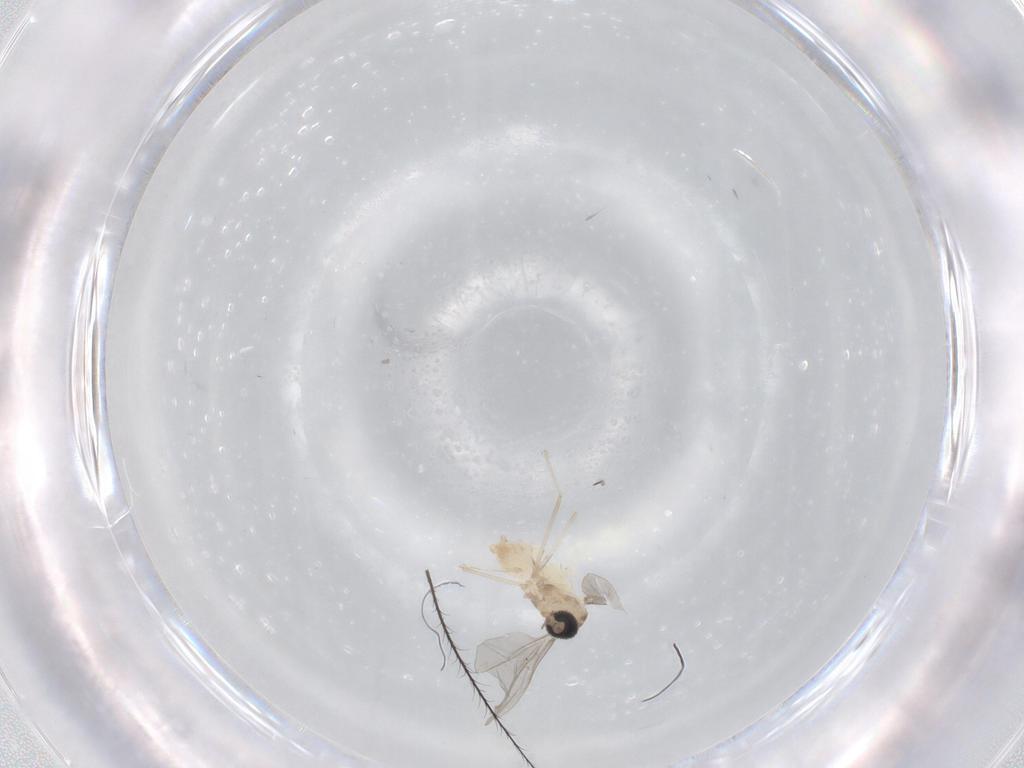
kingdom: Animalia
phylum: Arthropoda
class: Insecta
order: Diptera
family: Cecidomyiidae
